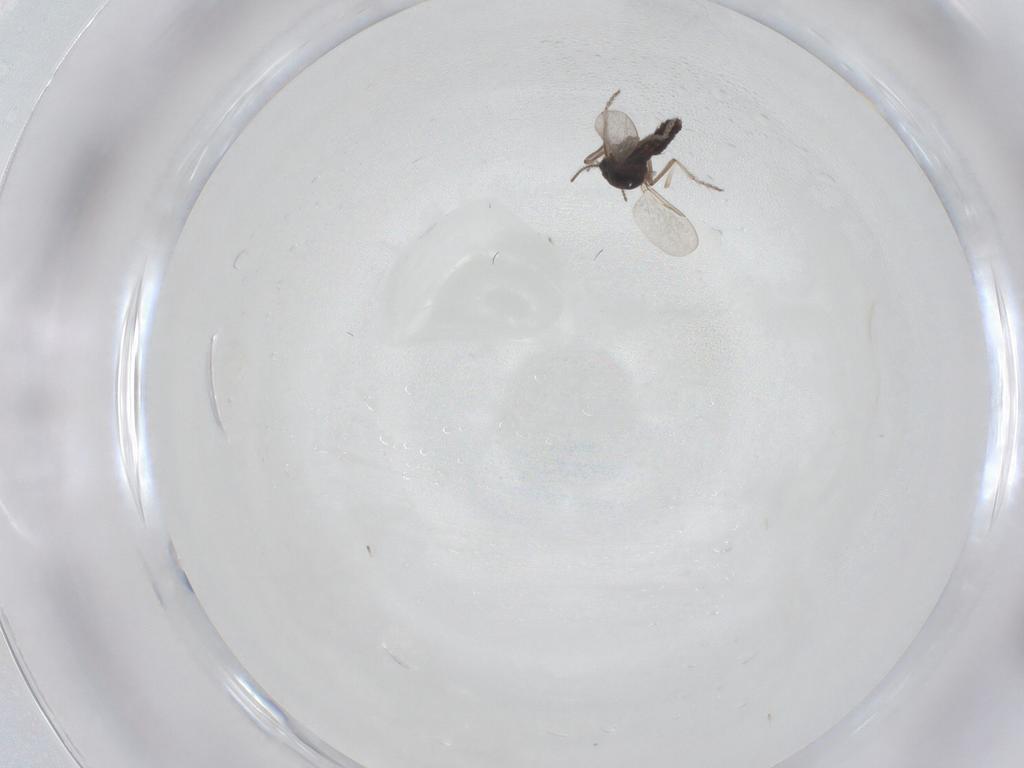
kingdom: Animalia
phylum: Arthropoda
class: Insecta
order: Diptera
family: Ceratopogonidae
